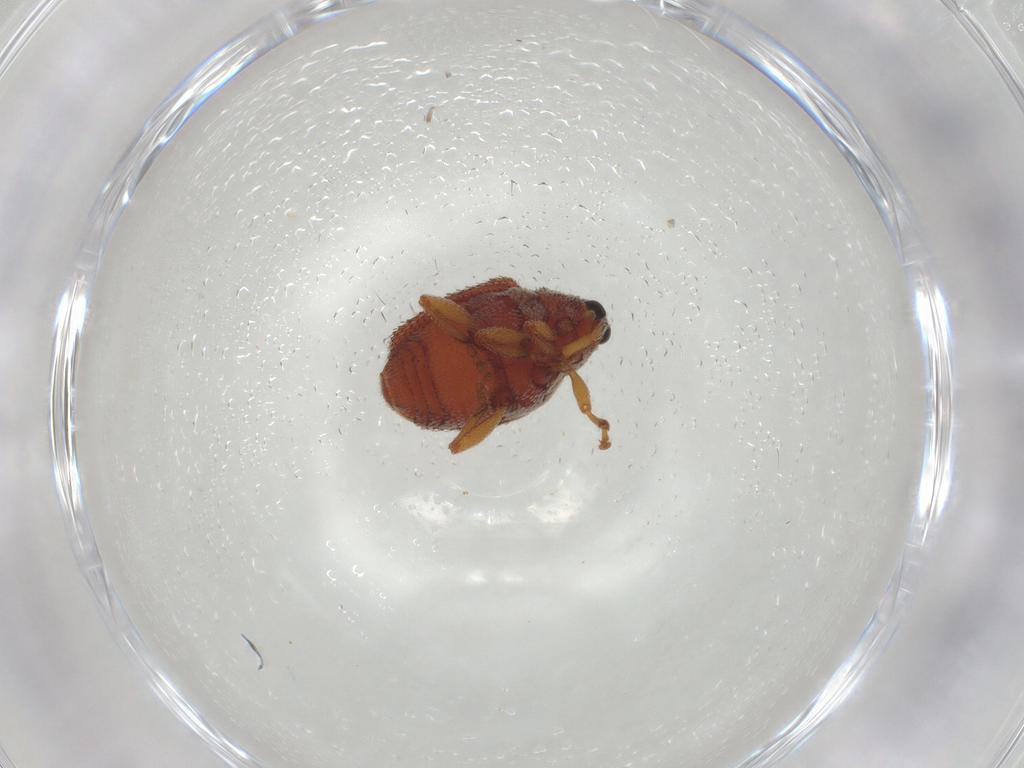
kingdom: Animalia
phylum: Arthropoda
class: Insecta
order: Coleoptera
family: Curculionidae
